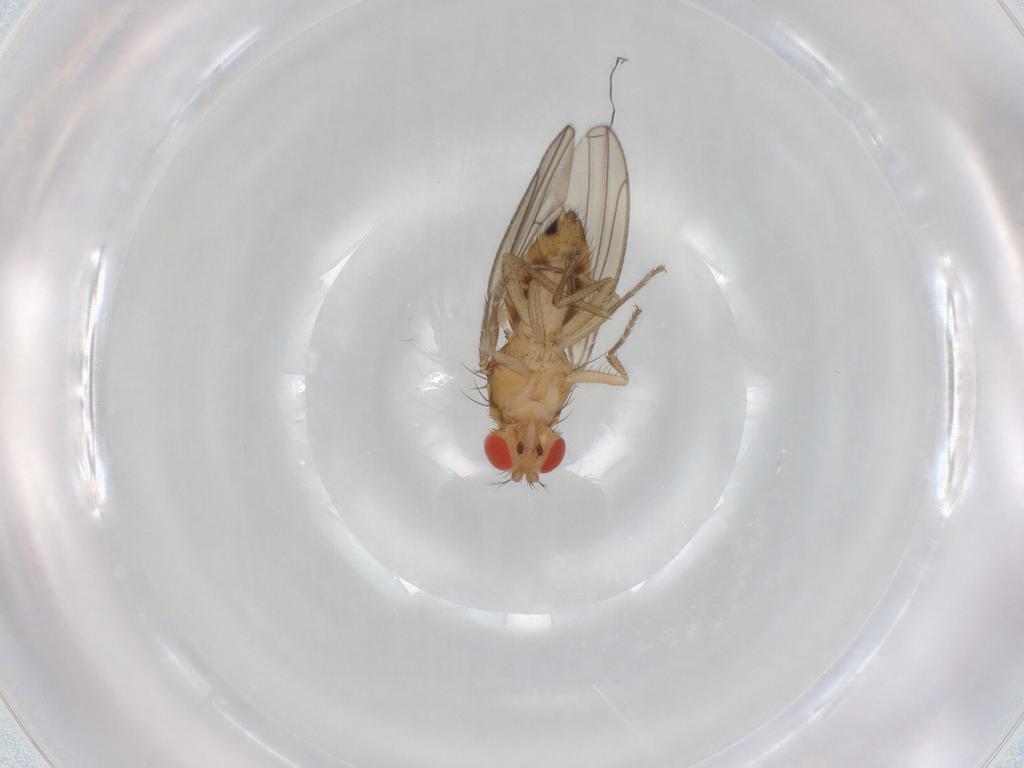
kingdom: Animalia
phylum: Arthropoda
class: Insecta
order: Diptera
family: Drosophilidae
